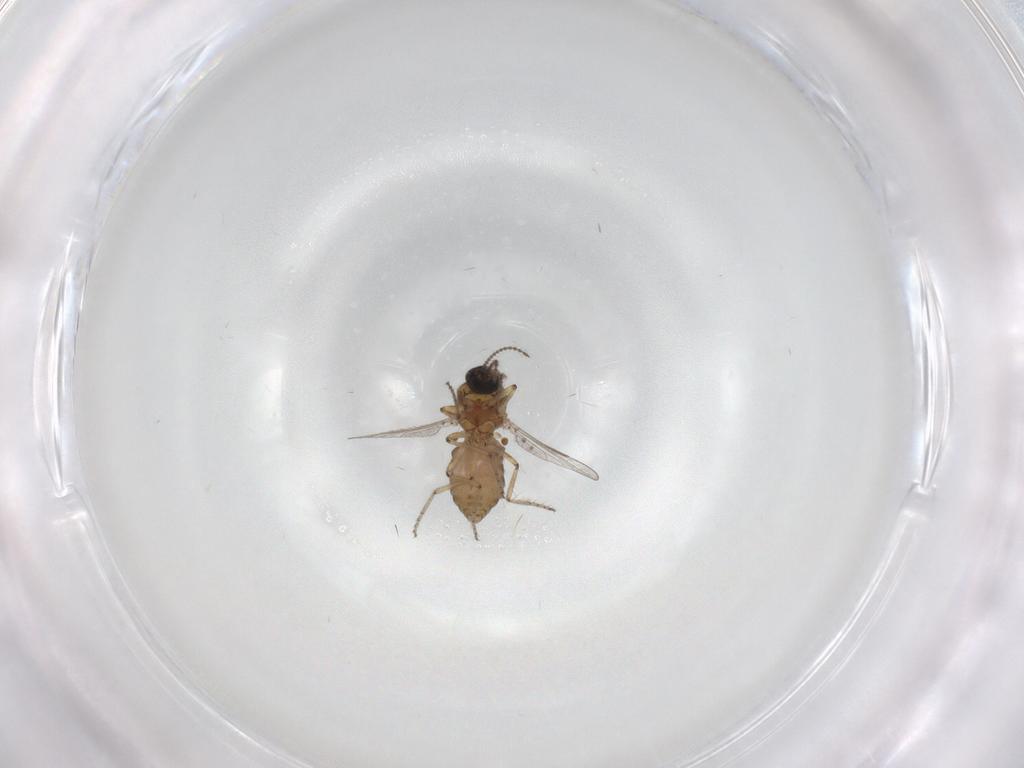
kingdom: Animalia
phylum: Arthropoda
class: Insecta
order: Diptera
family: Ceratopogonidae
